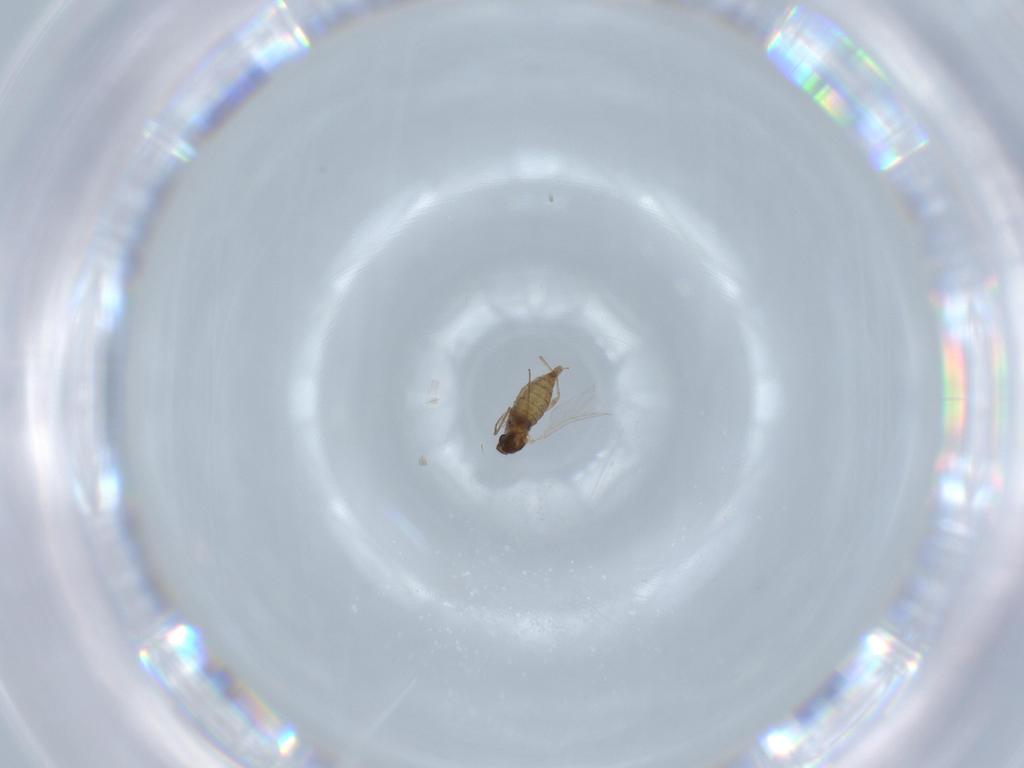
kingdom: Animalia
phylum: Arthropoda
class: Insecta
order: Diptera
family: Cecidomyiidae
